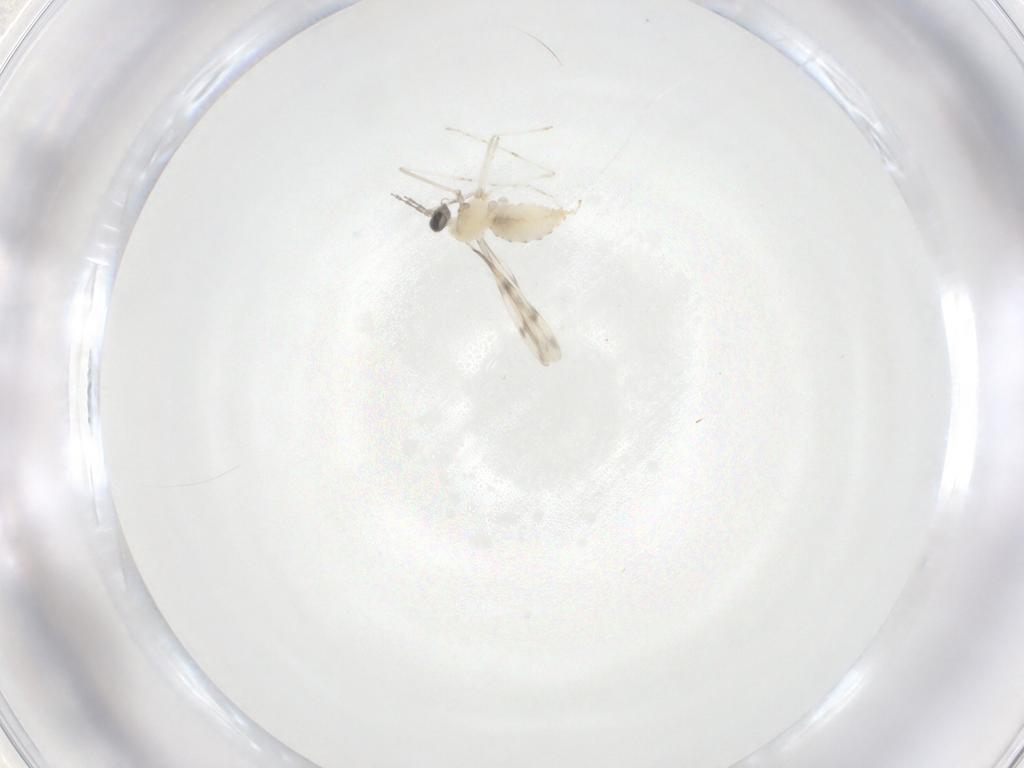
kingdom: Animalia
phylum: Arthropoda
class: Insecta
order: Diptera
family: Cecidomyiidae
